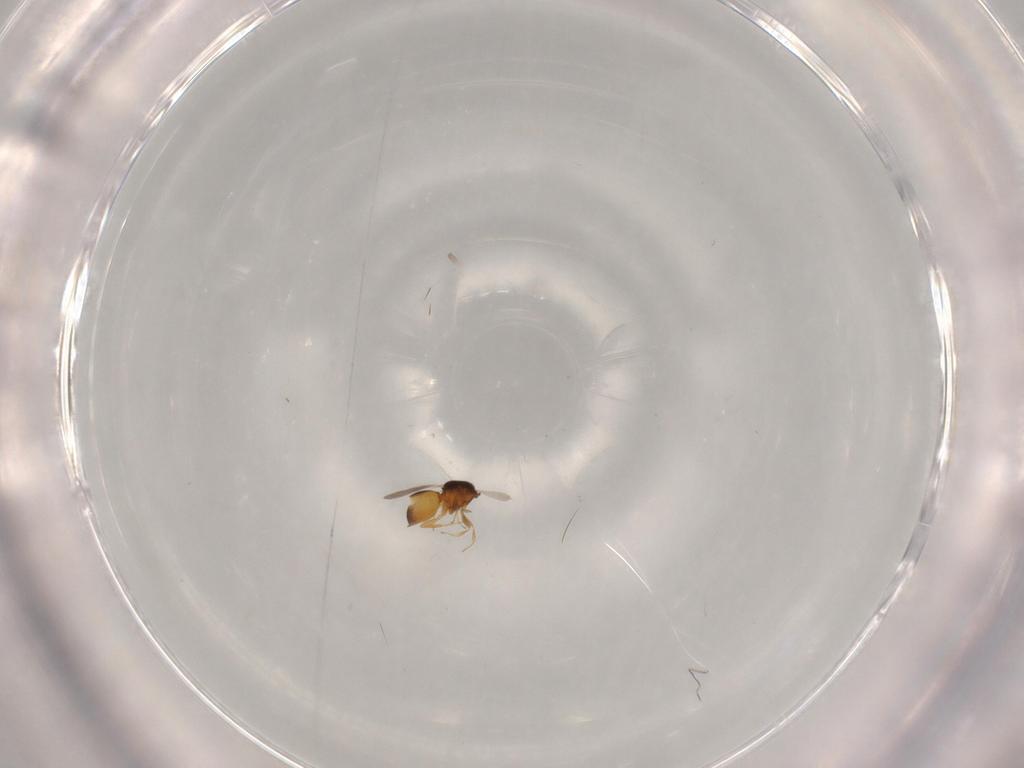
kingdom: Animalia
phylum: Arthropoda
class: Insecta
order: Hymenoptera
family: Ceraphronidae
